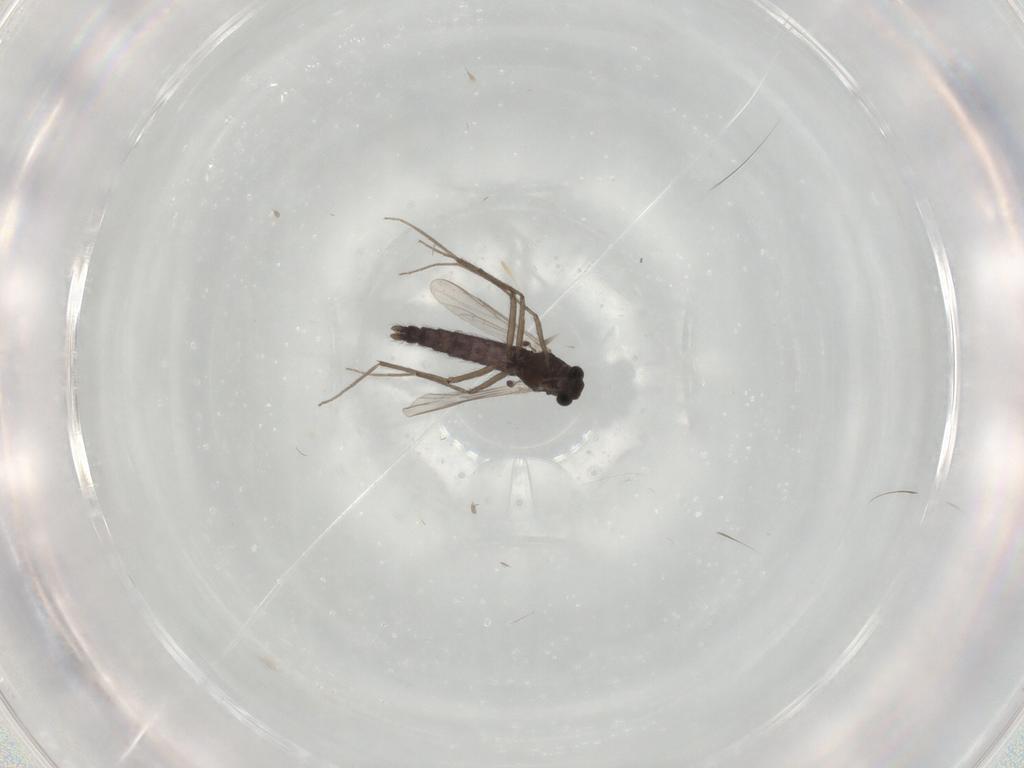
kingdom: Animalia
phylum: Arthropoda
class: Insecta
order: Diptera
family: Chironomidae
